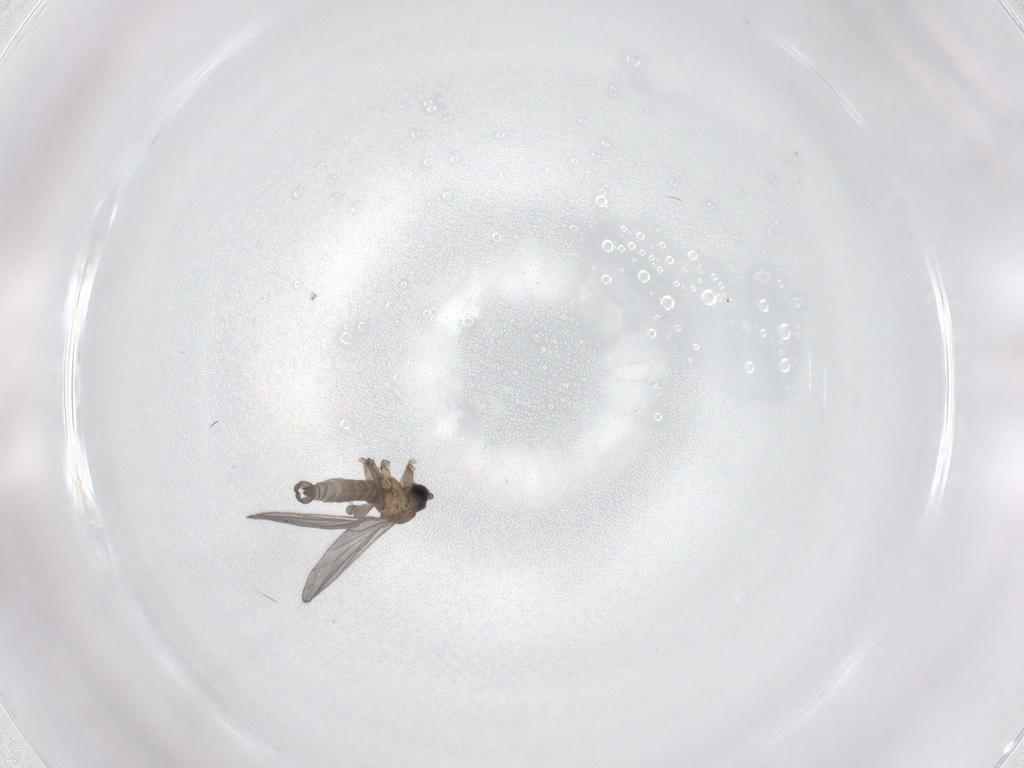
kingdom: Animalia
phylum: Arthropoda
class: Insecta
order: Diptera
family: Sciaridae
